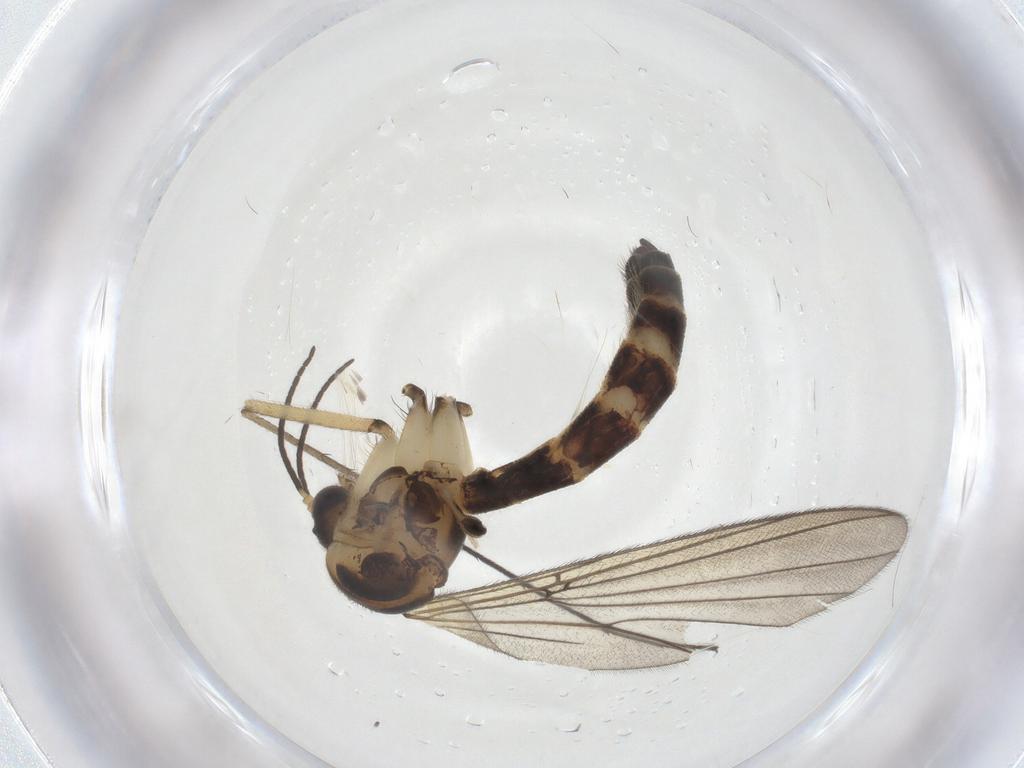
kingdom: Animalia
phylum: Arthropoda
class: Insecta
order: Diptera
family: Mycetophilidae
